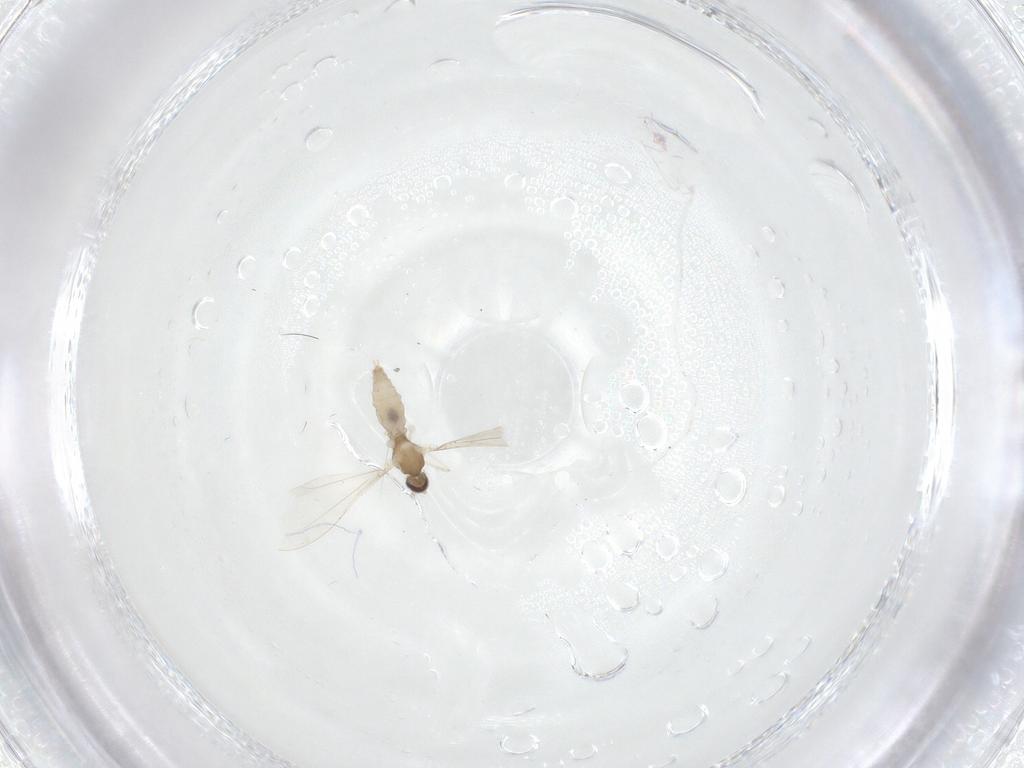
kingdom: Animalia
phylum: Arthropoda
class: Insecta
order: Diptera
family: Cecidomyiidae
